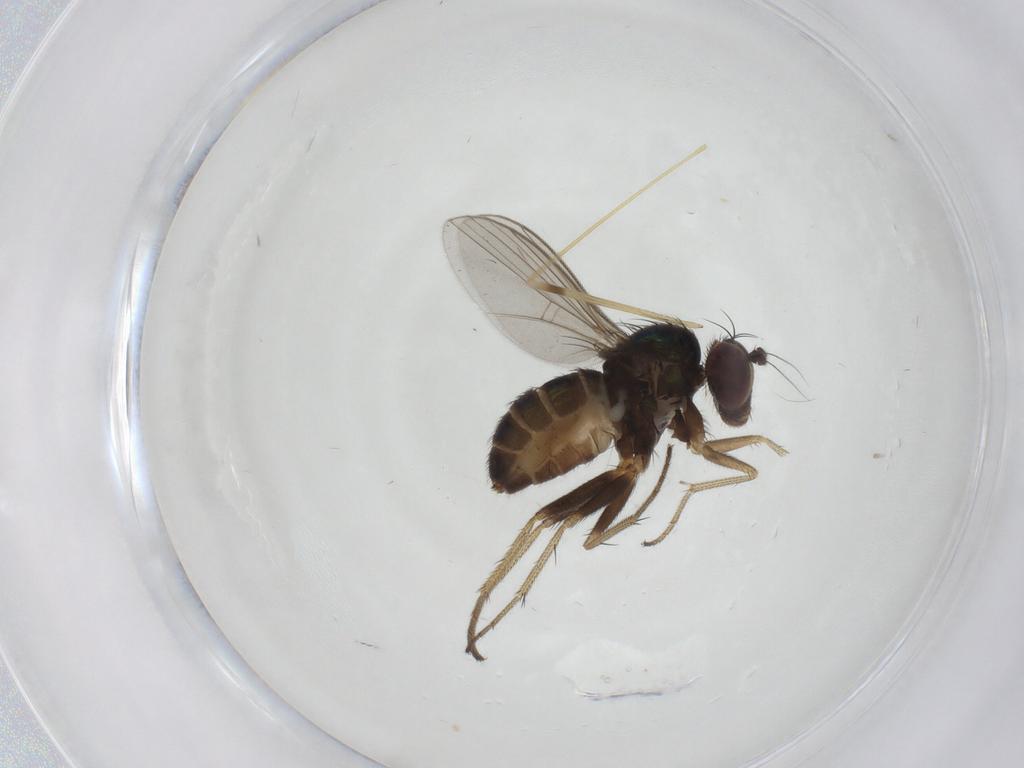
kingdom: Animalia
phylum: Arthropoda
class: Insecta
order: Diptera
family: Limoniidae
